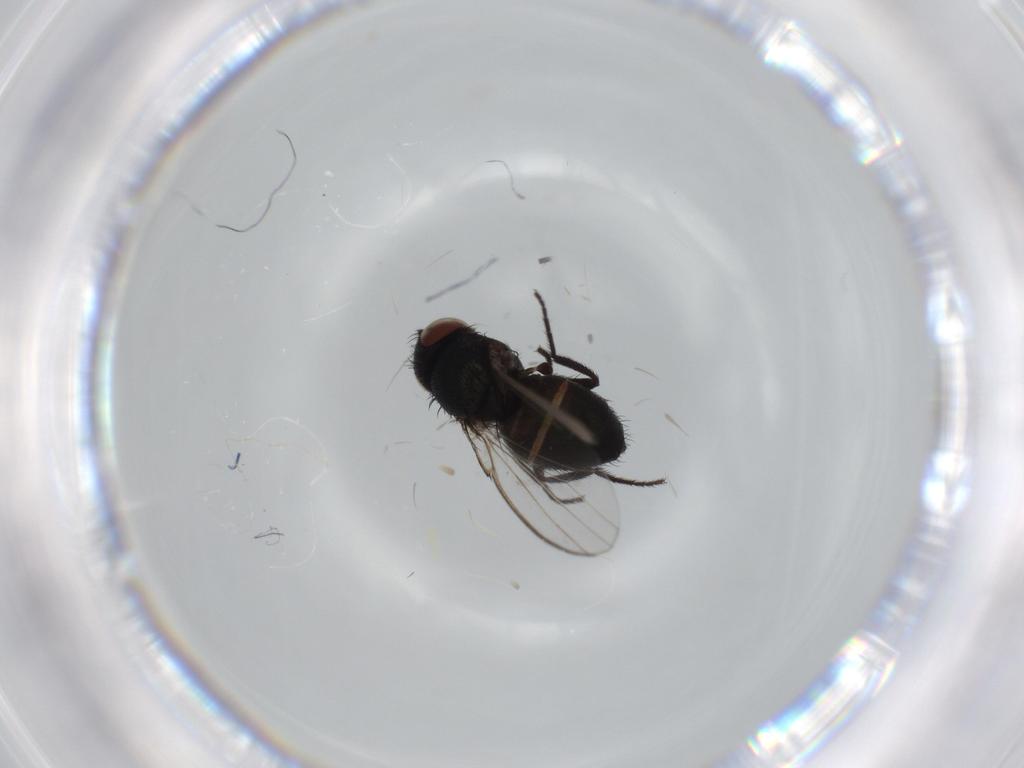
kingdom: Animalia
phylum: Arthropoda
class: Insecta
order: Diptera
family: Milichiidae
